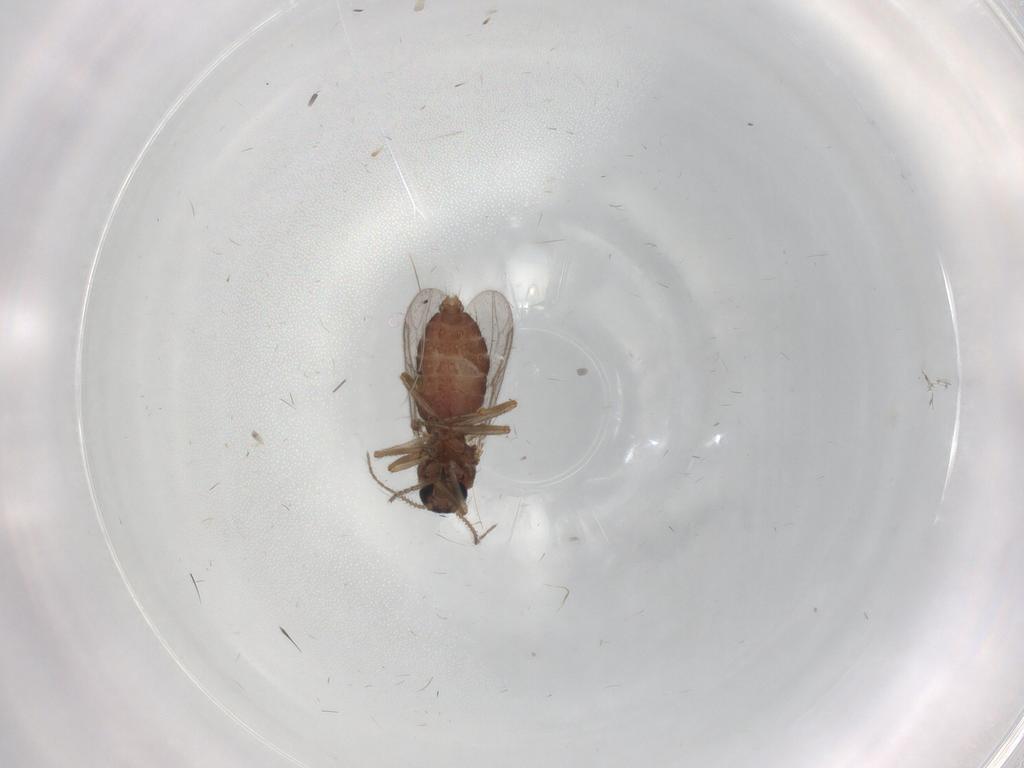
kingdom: Animalia
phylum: Arthropoda
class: Insecta
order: Diptera
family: Ceratopogonidae
